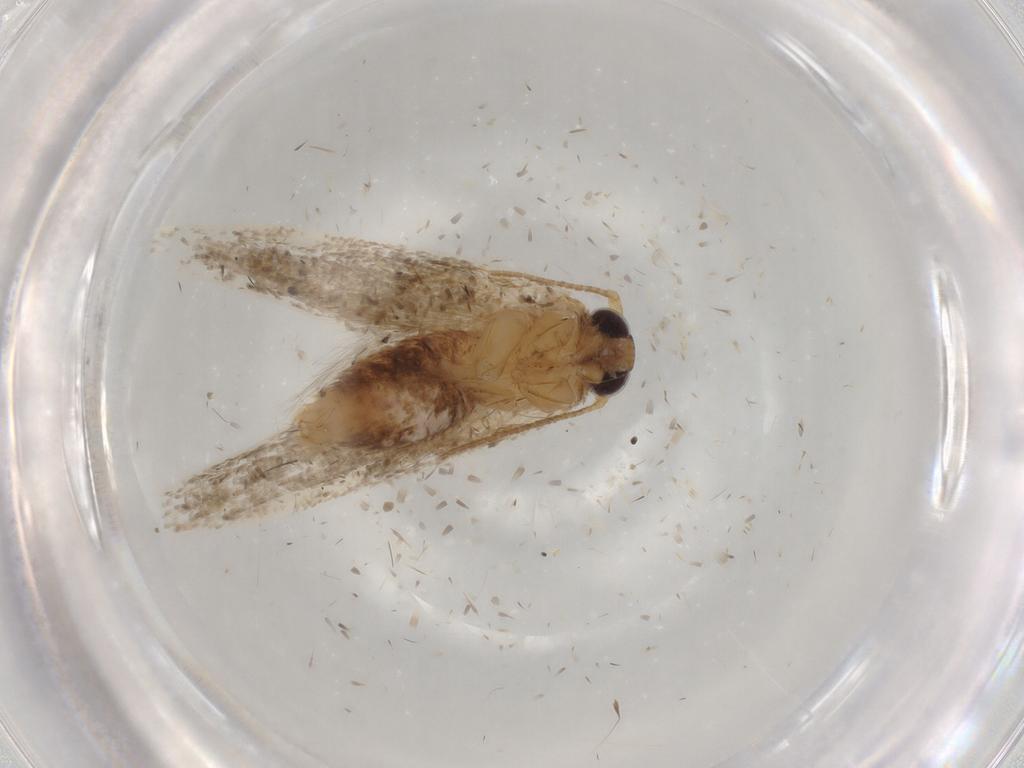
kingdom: Animalia
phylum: Arthropoda
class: Insecta
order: Lepidoptera
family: Blastobasidae
